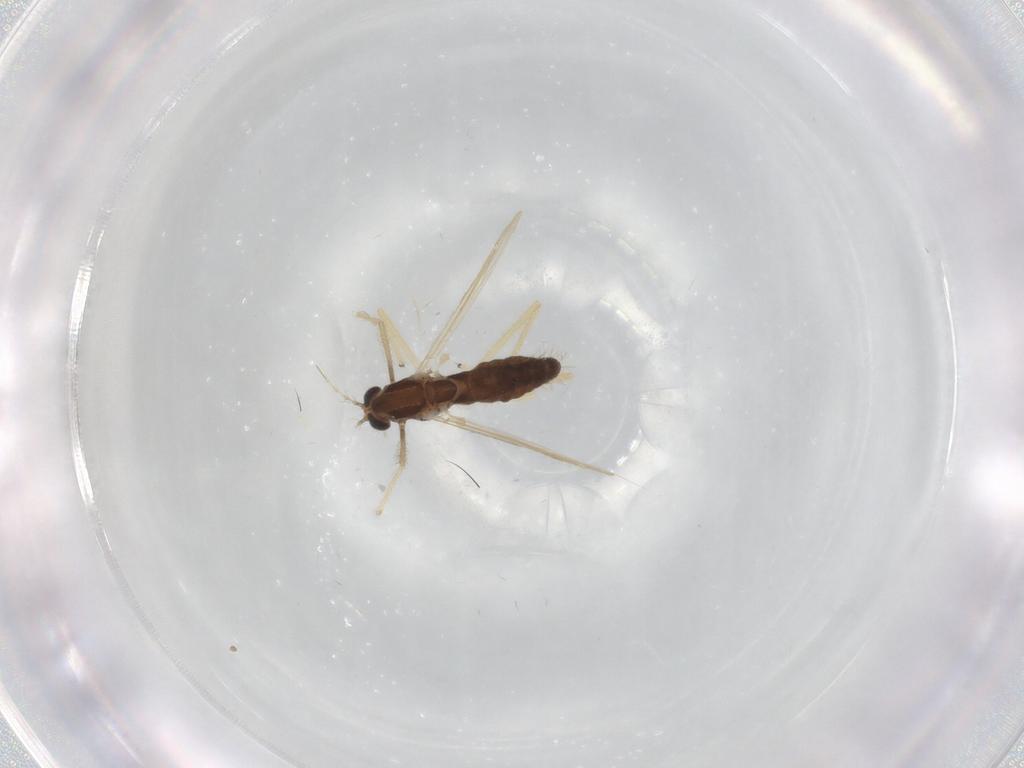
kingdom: Animalia
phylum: Arthropoda
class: Insecta
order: Diptera
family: Chironomidae
